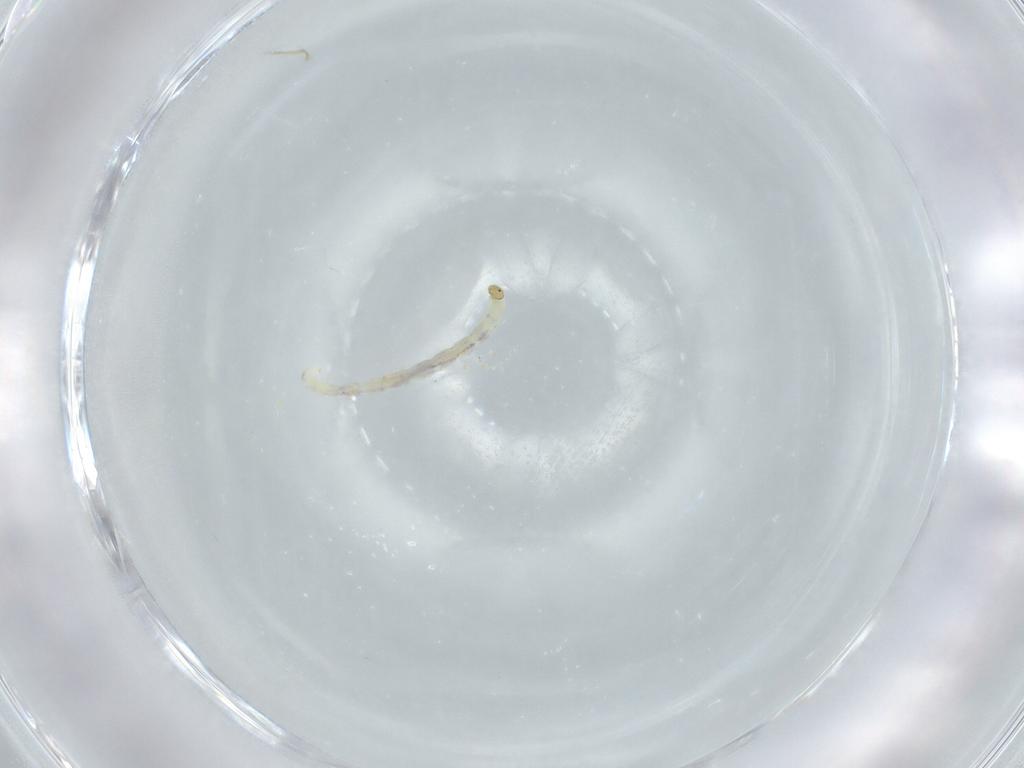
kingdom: Animalia
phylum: Arthropoda
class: Insecta
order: Diptera
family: Chironomidae
